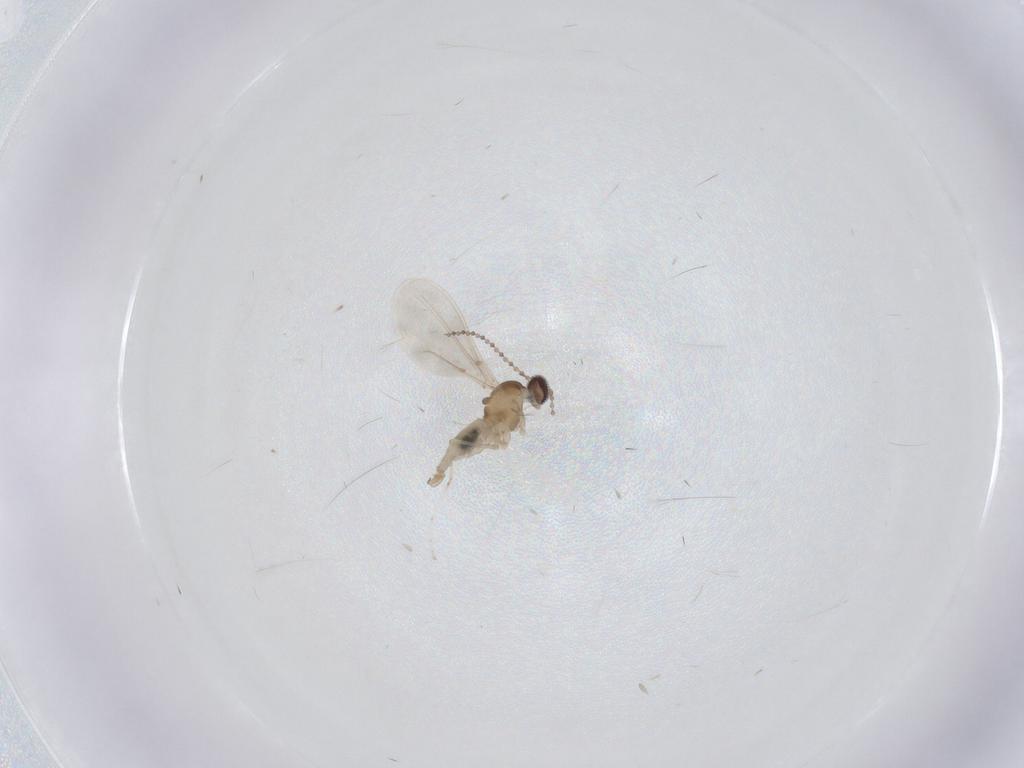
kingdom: Animalia
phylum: Arthropoda
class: Insecta
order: Diptera
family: Cecidomyiidae
